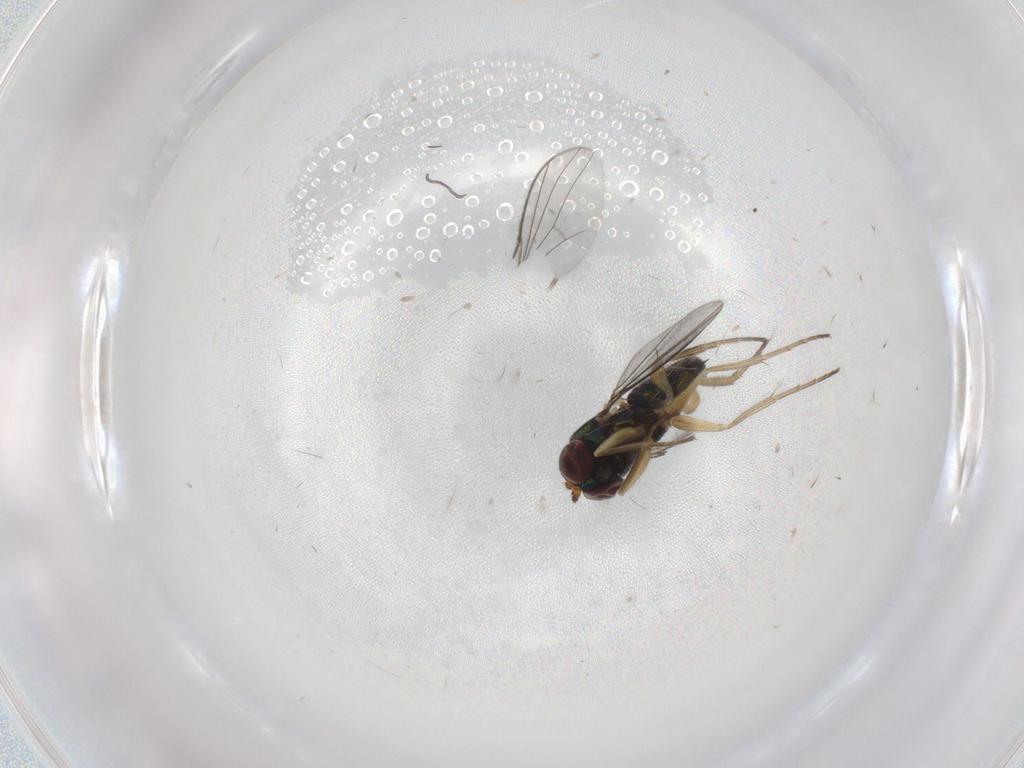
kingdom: Animalia
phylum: Arthropoda
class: Insecta
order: Diptera
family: Dolichopodidae
